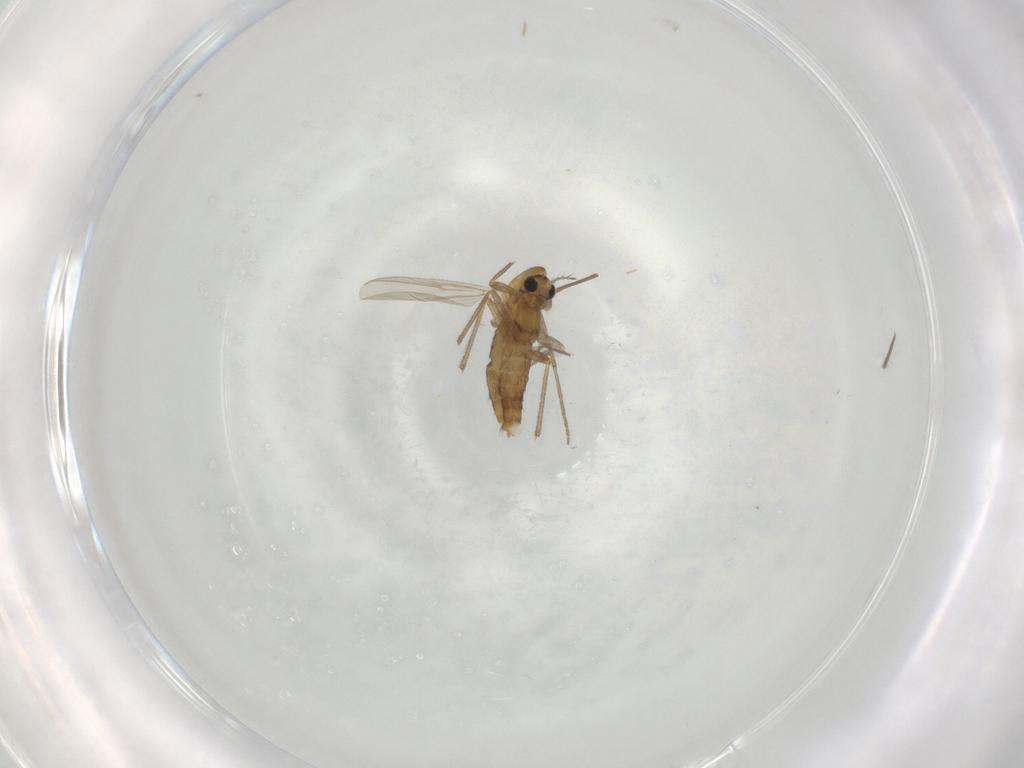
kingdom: Animalia
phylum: Arthropoda
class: Insecta
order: Diptera
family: Chironomidae
